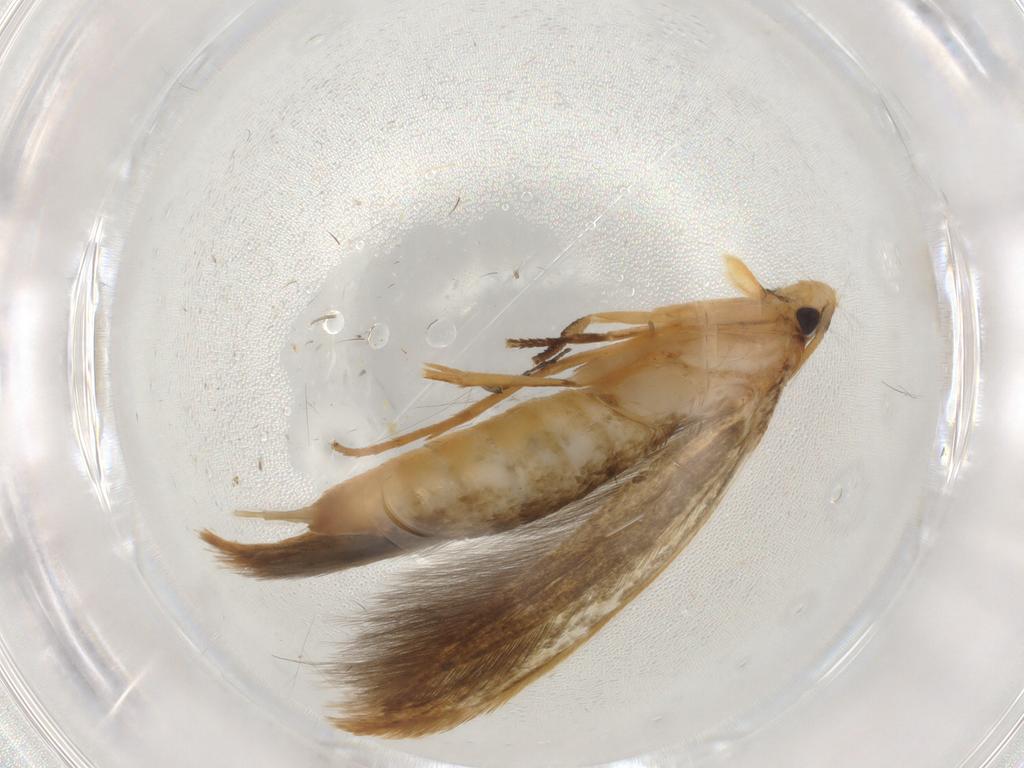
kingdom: Animalia
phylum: Arthropoda
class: Insecta
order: Lepidoptera
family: Tineidae
